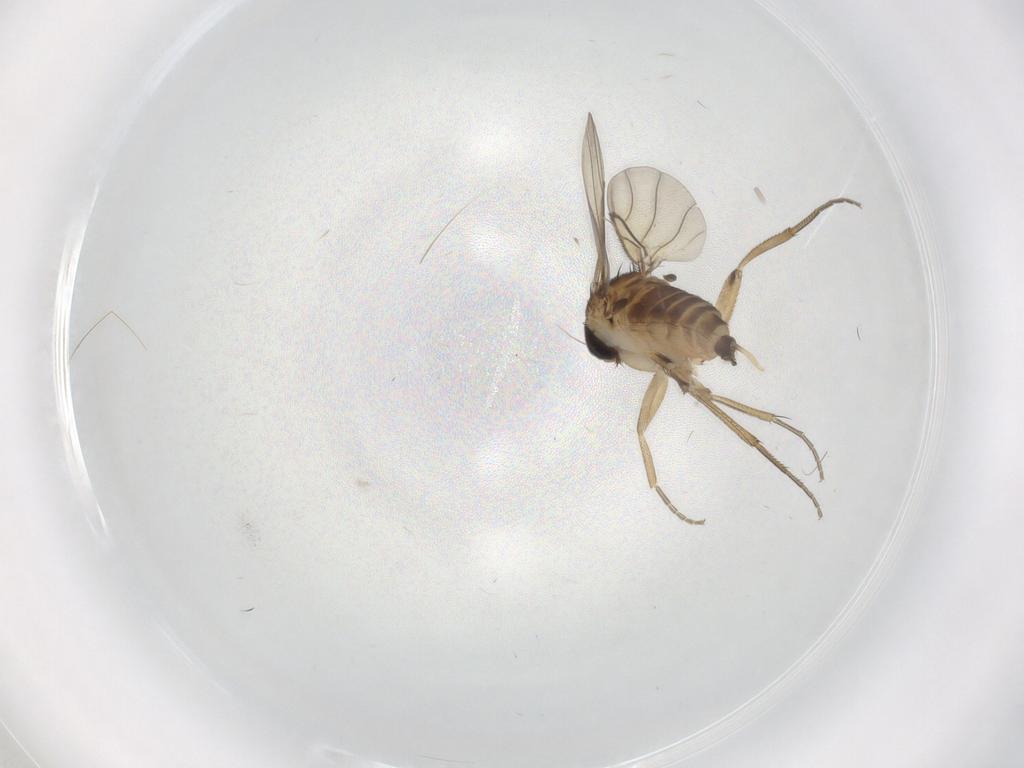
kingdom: Animalia
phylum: Arthropoda
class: Insecta
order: Diptera
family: Phoridae
